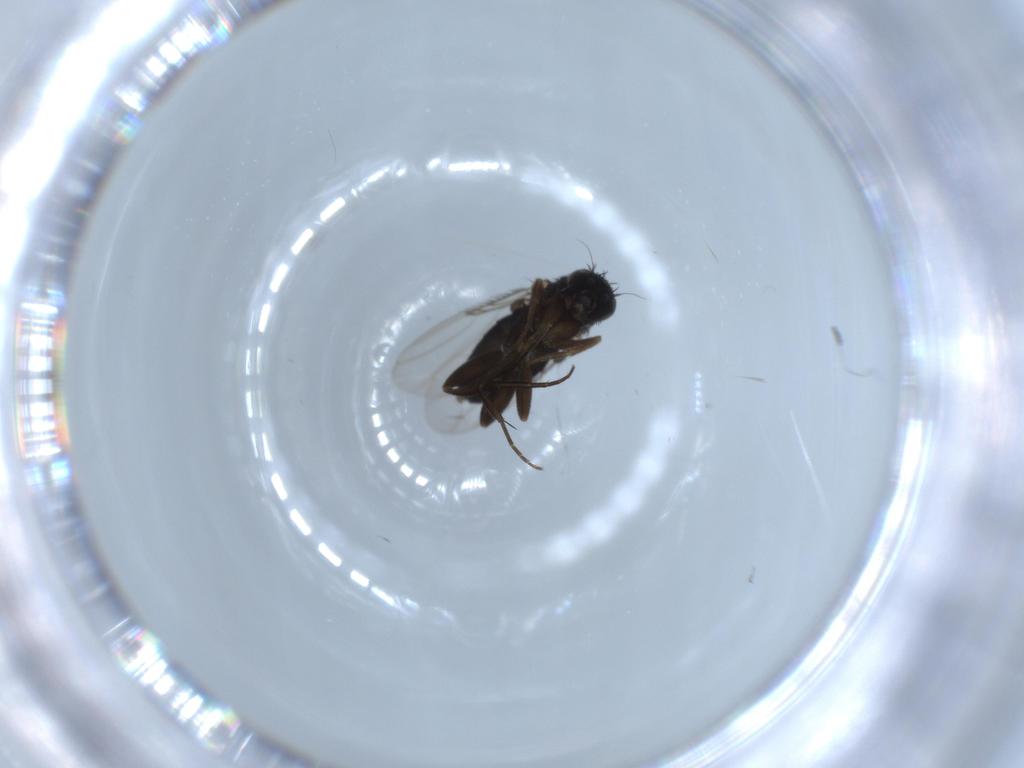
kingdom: Animalia
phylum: Arthropoda
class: Insecta
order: Diptera
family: Phoridae
